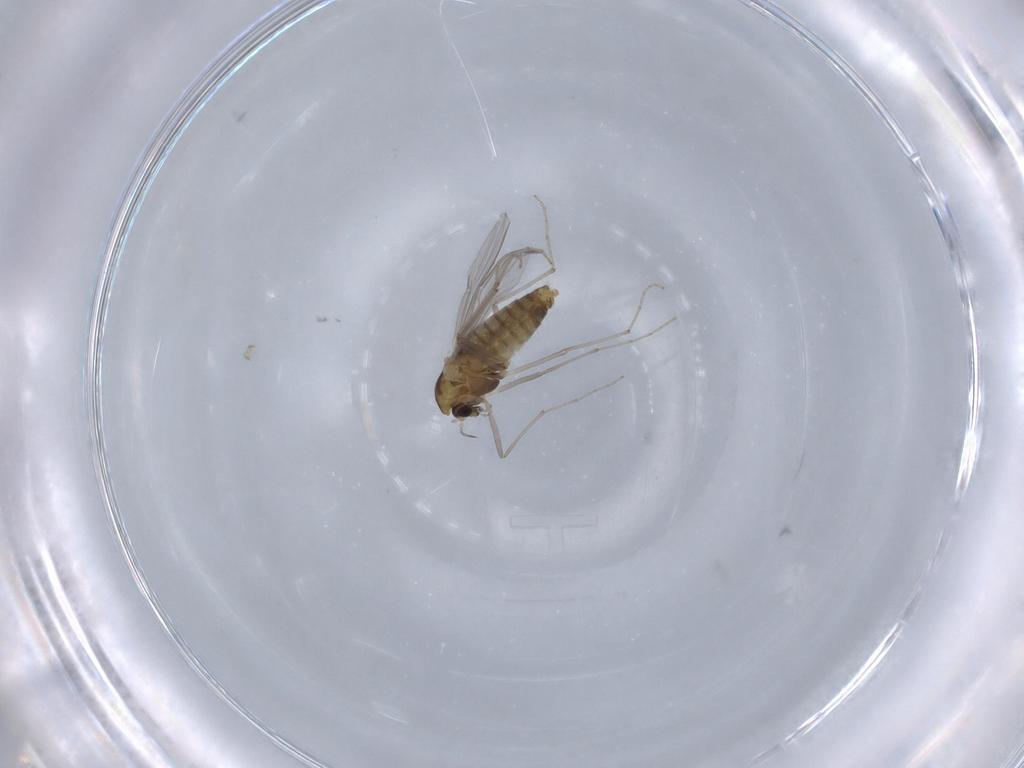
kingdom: Animalia
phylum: Arthropoda
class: Insecta
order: Diptera
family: Chironomidae
